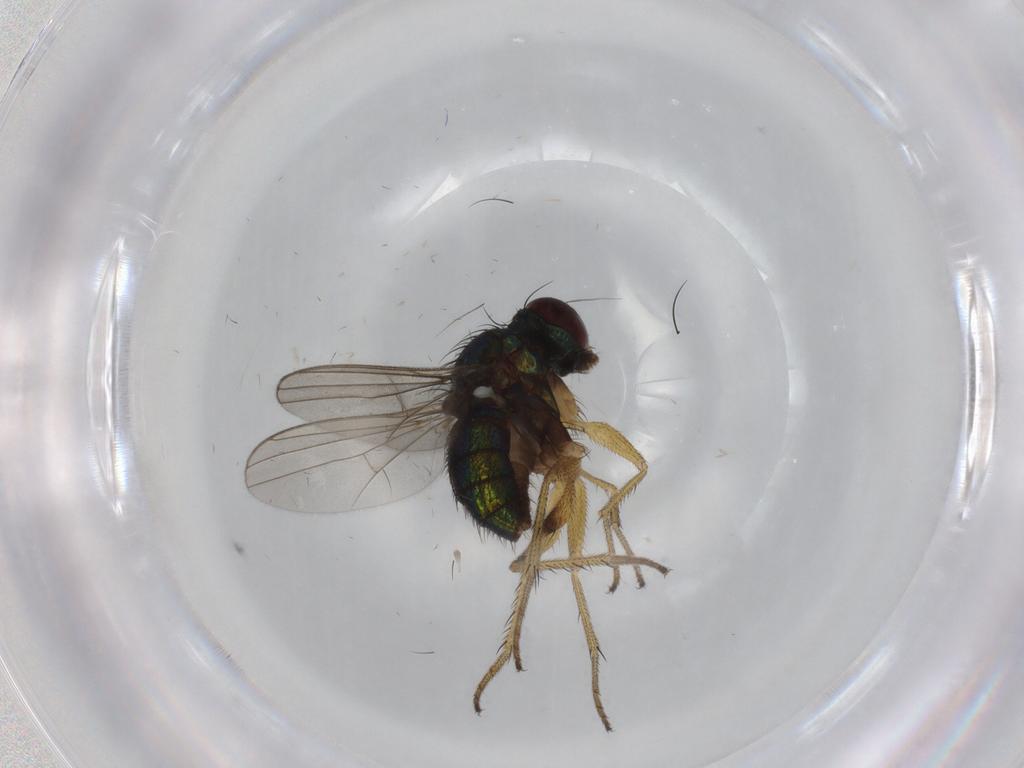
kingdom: Animalia
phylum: Arthropoda
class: Insecta
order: Diptera
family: Dolichopodidae
